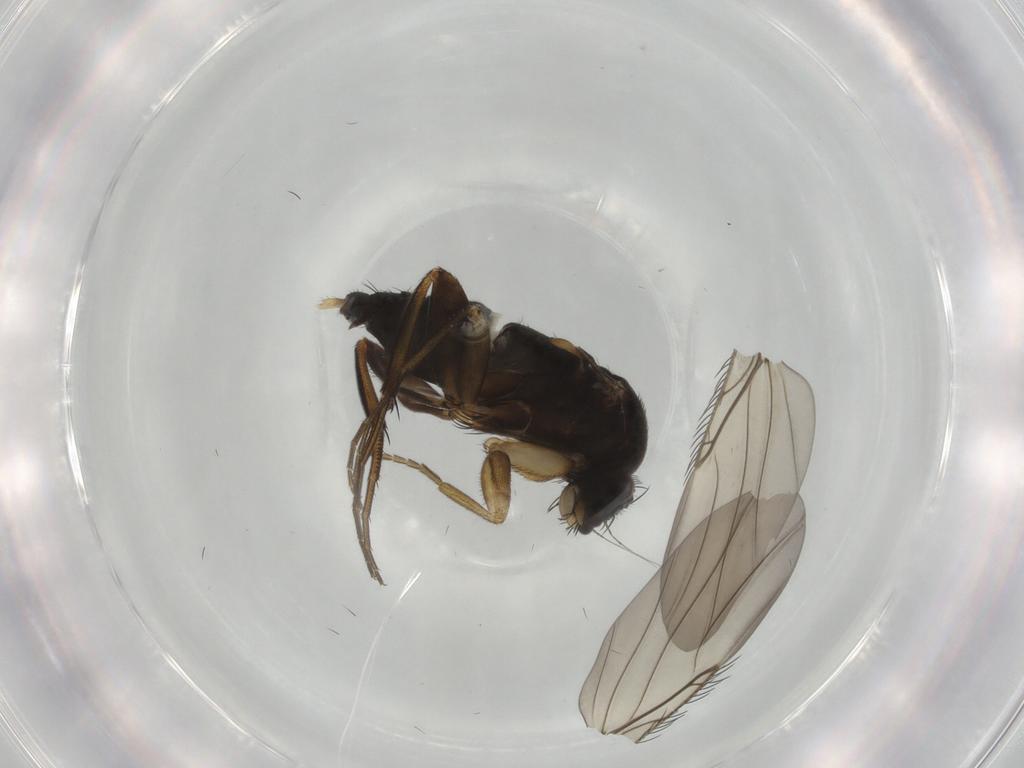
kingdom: Animalia
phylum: Arthropoda
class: Insecta
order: Diptera
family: Phoridae
